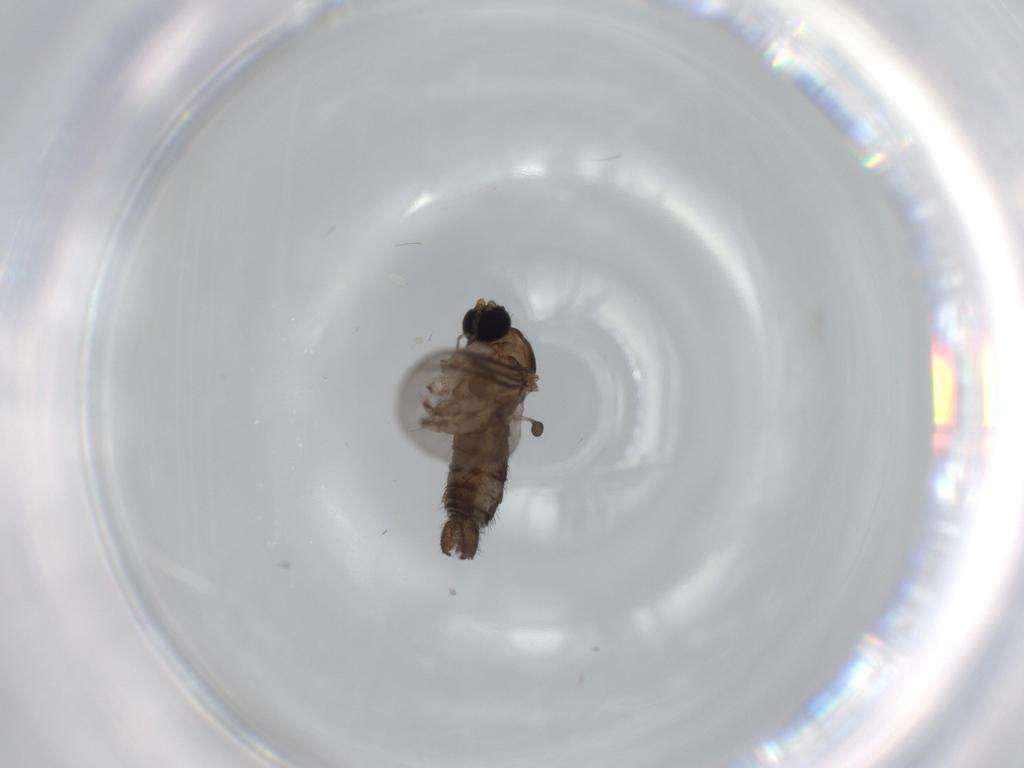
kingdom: Animalia
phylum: Arthropoda
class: Insecta
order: Diptera
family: Sciaridae
